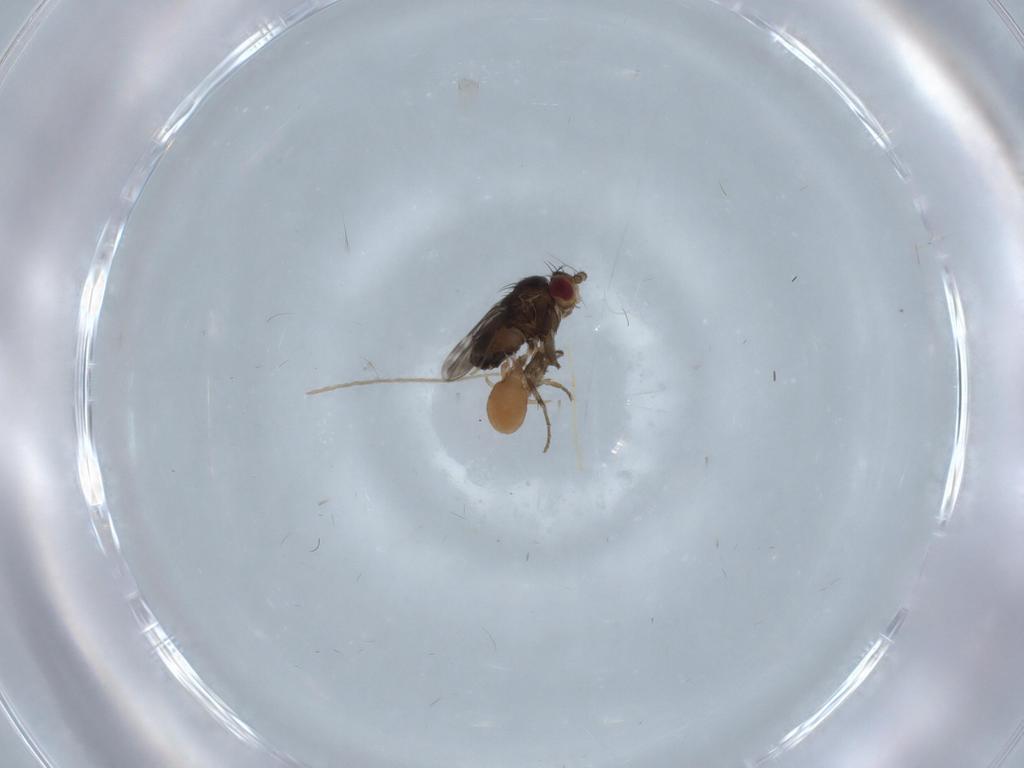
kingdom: Animalia
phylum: Arthropoda
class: Insecta
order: Diptera
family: Sphaeroceridae
